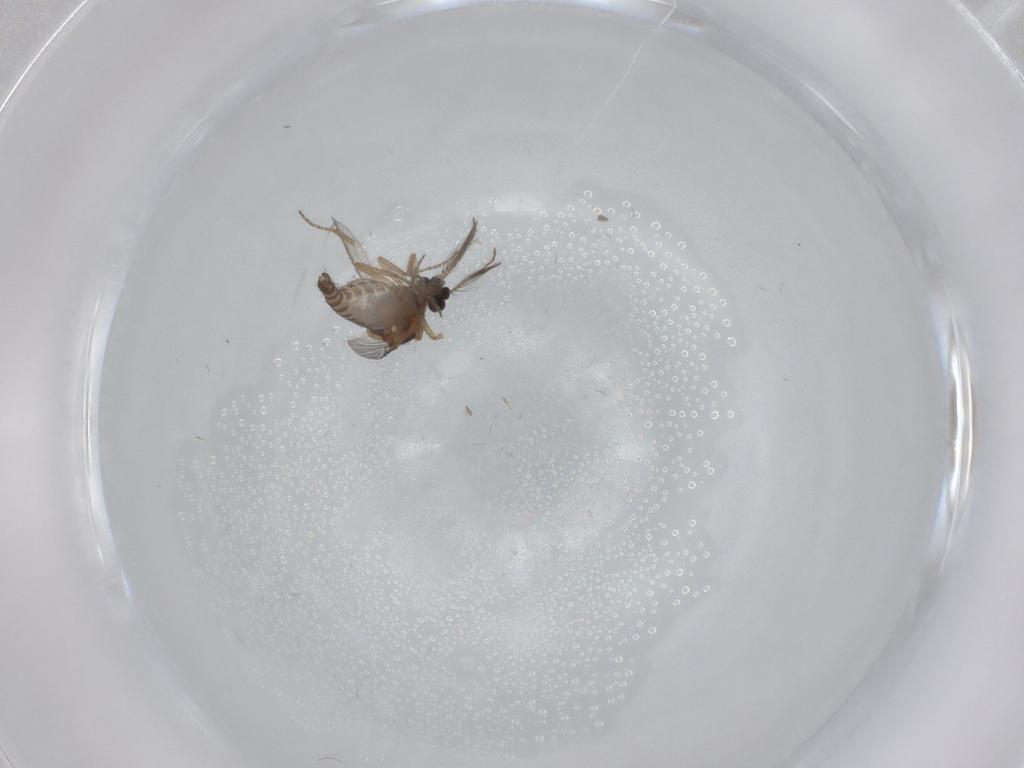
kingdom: Animalia
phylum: Arthropoda
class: Insecta
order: Diptera
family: Ceratopogonidae
